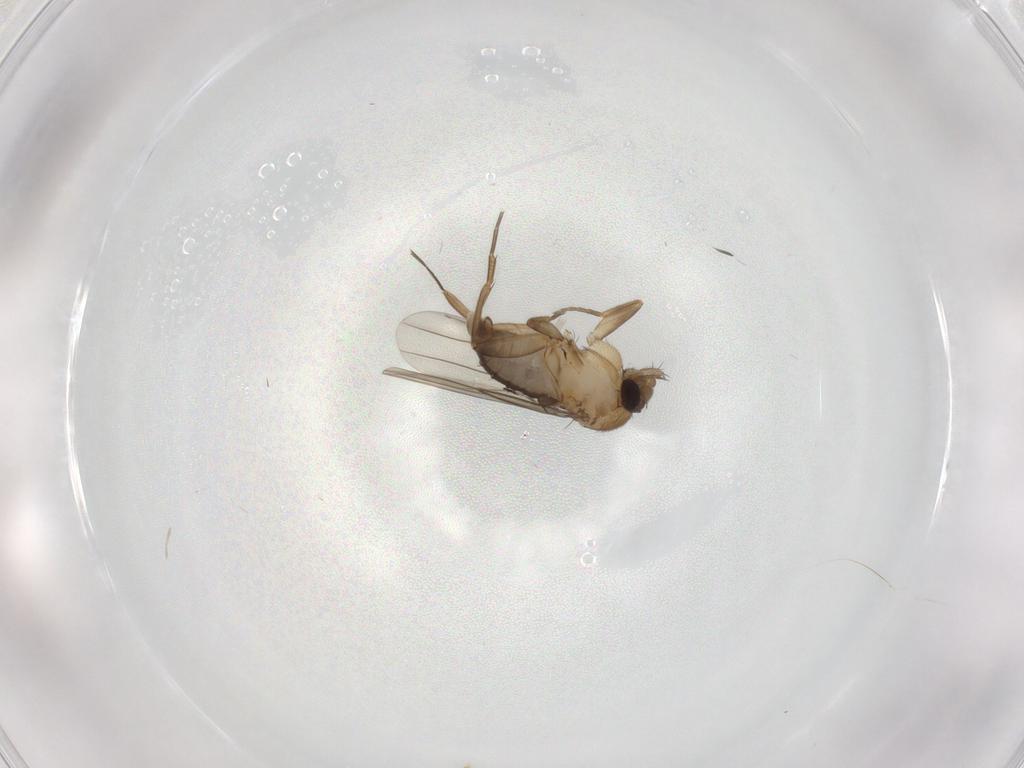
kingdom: Animalia
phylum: Arthropoda
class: Insecta
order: Diptera
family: Phoridae
